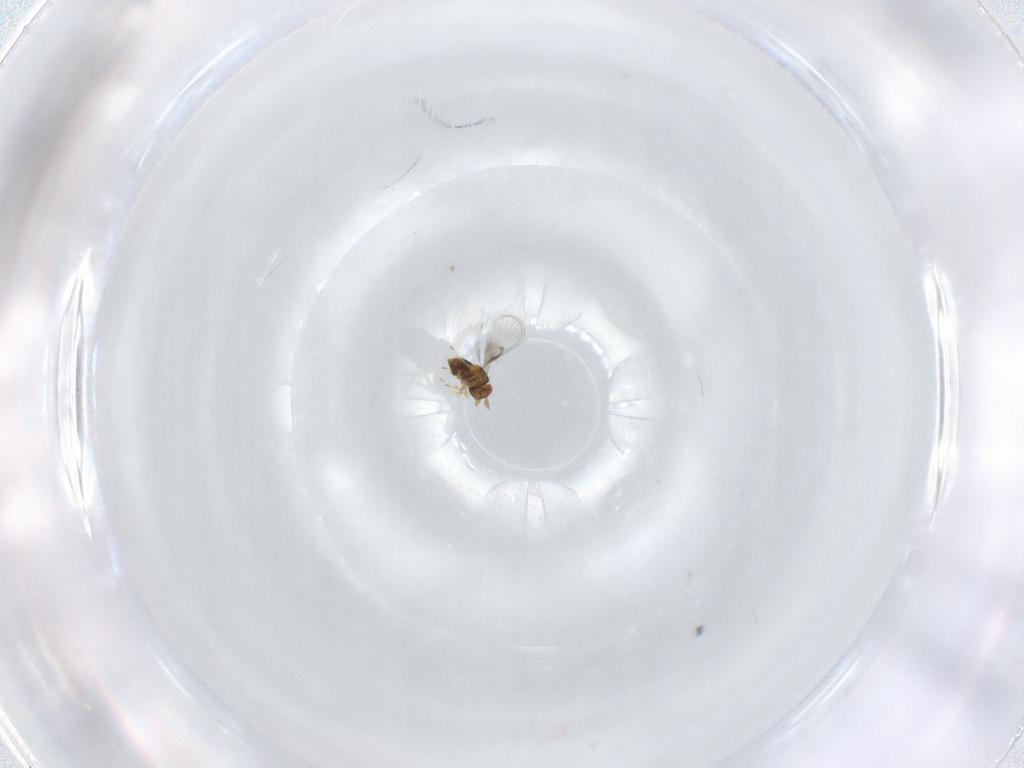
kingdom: Animalia
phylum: Arthropoda
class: Insecta
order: Hymenoptera
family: Trichogrammatidae
